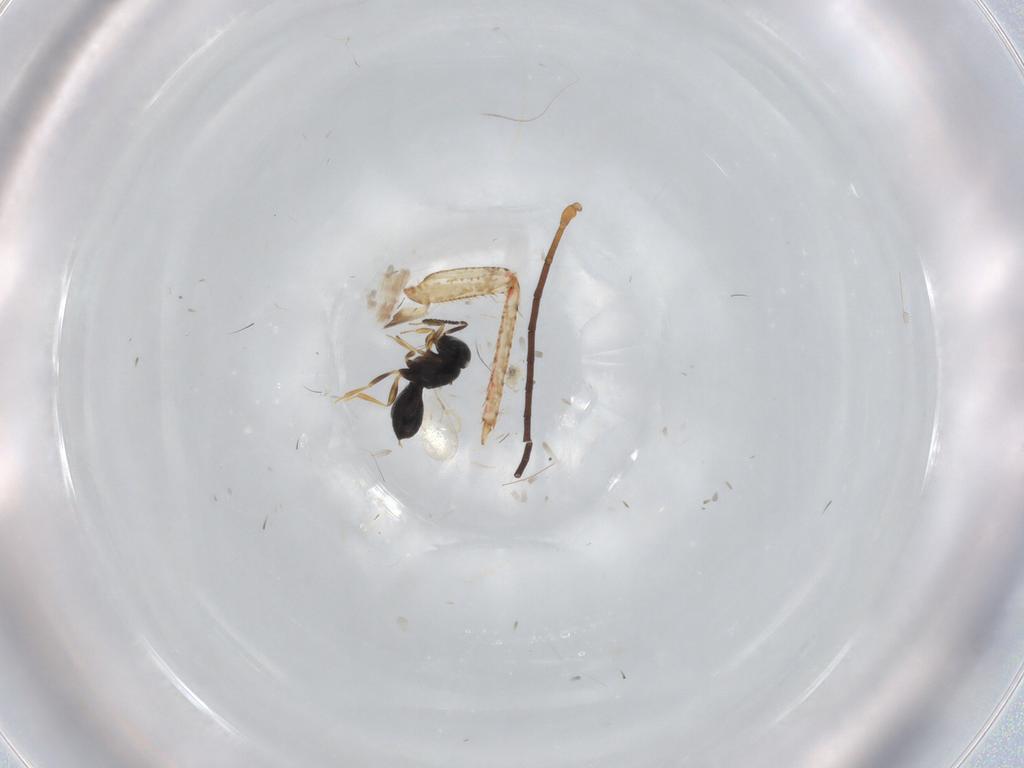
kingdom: Animalia
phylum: Arthropoda
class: Insecta
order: Hymenoptera
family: Scelionidae
